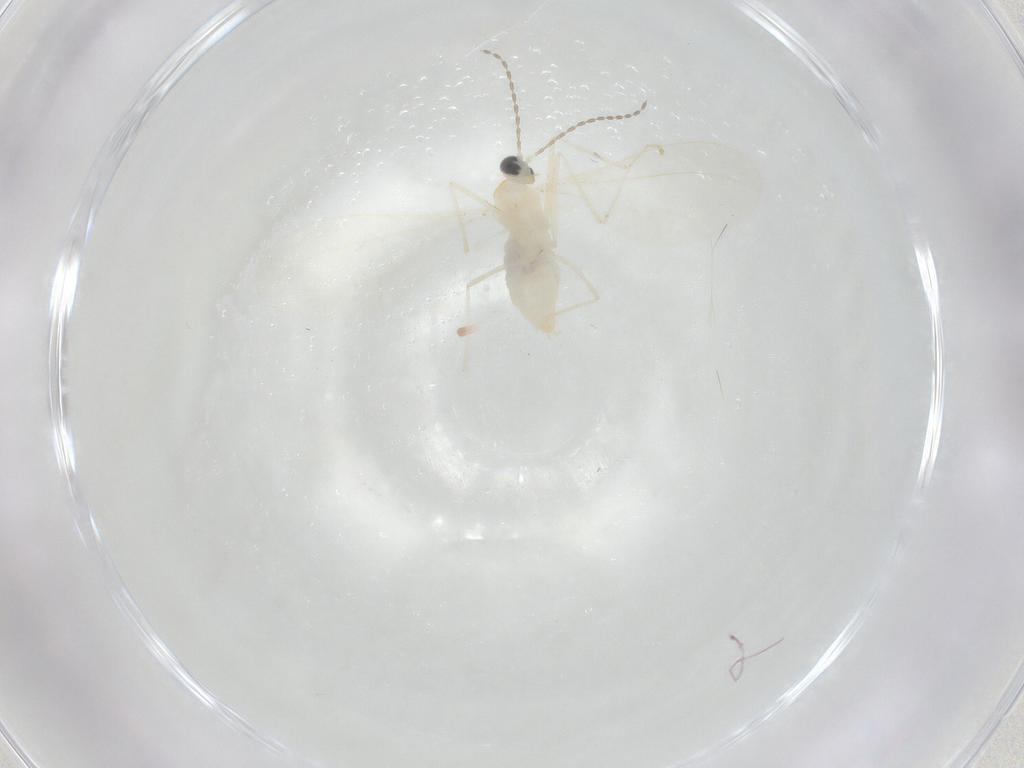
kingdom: Animalia
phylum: Arthropoda
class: Insecta
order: Diptera
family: Cecidomyiidae
